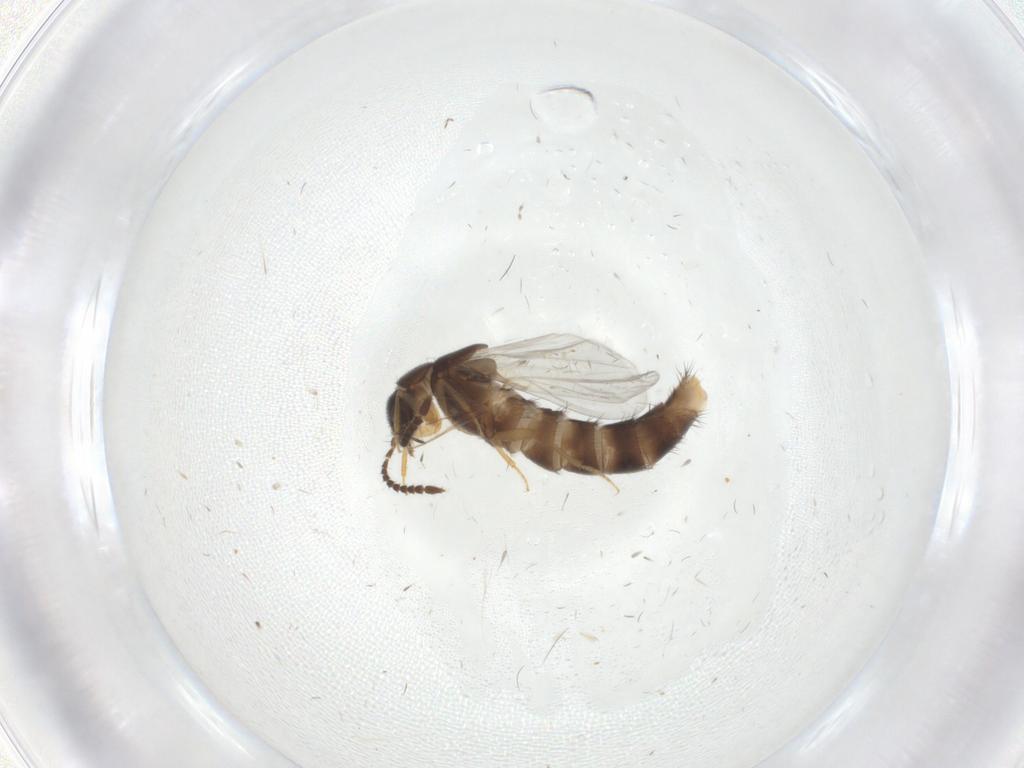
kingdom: Animalia
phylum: Arthropoda
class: Insecta
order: Coleoptera
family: Staphylinidae
